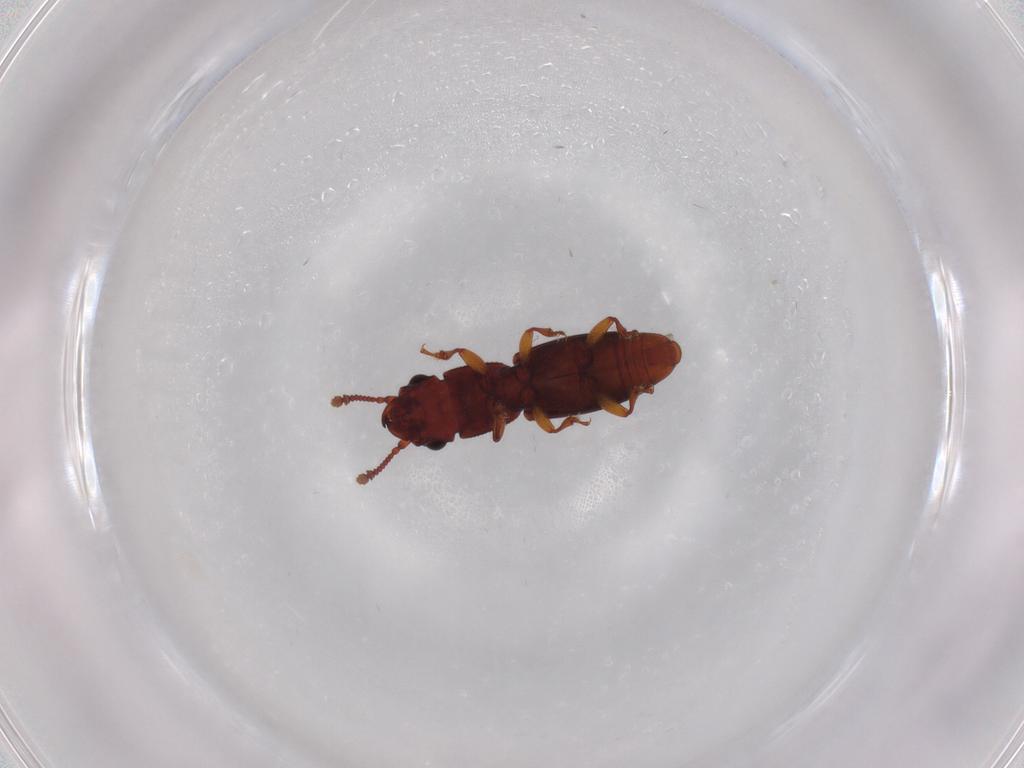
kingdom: Animalia
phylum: Arthropoda
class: Insecta
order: Coleoptera
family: Monotomidae
